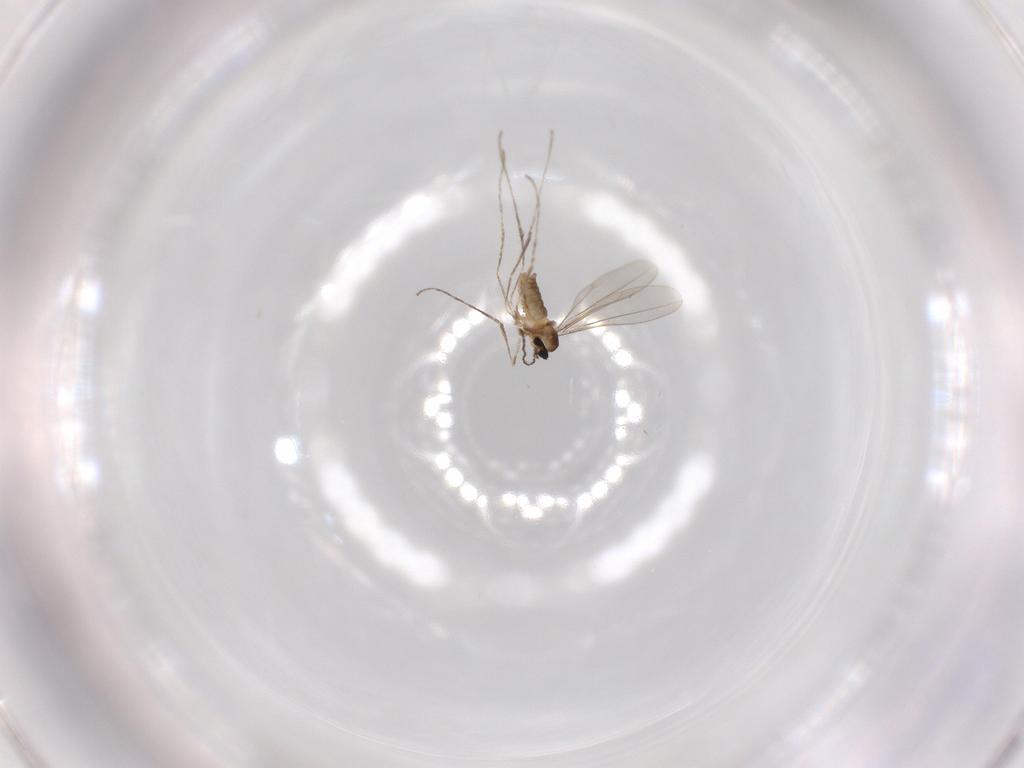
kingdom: Animalia
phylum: Arthropoda
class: Insecta
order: Diptera
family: Cecidomyiidae
